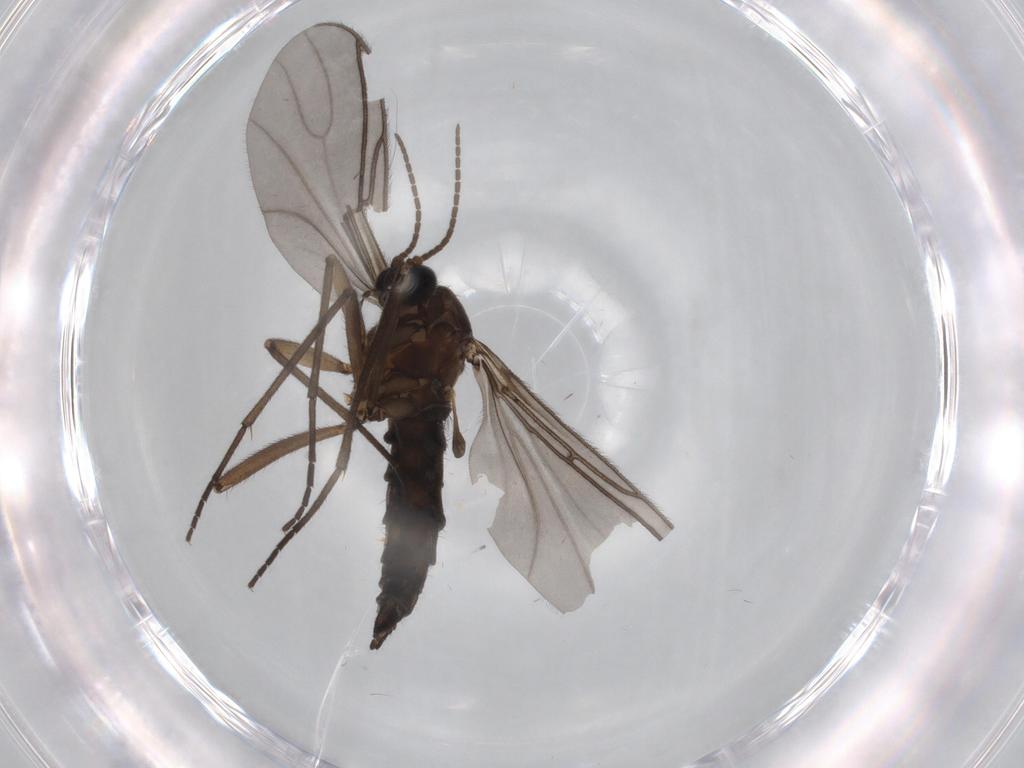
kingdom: Animalia
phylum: Arthropoda
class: Insecta
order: Diptera
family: Sciaridae
